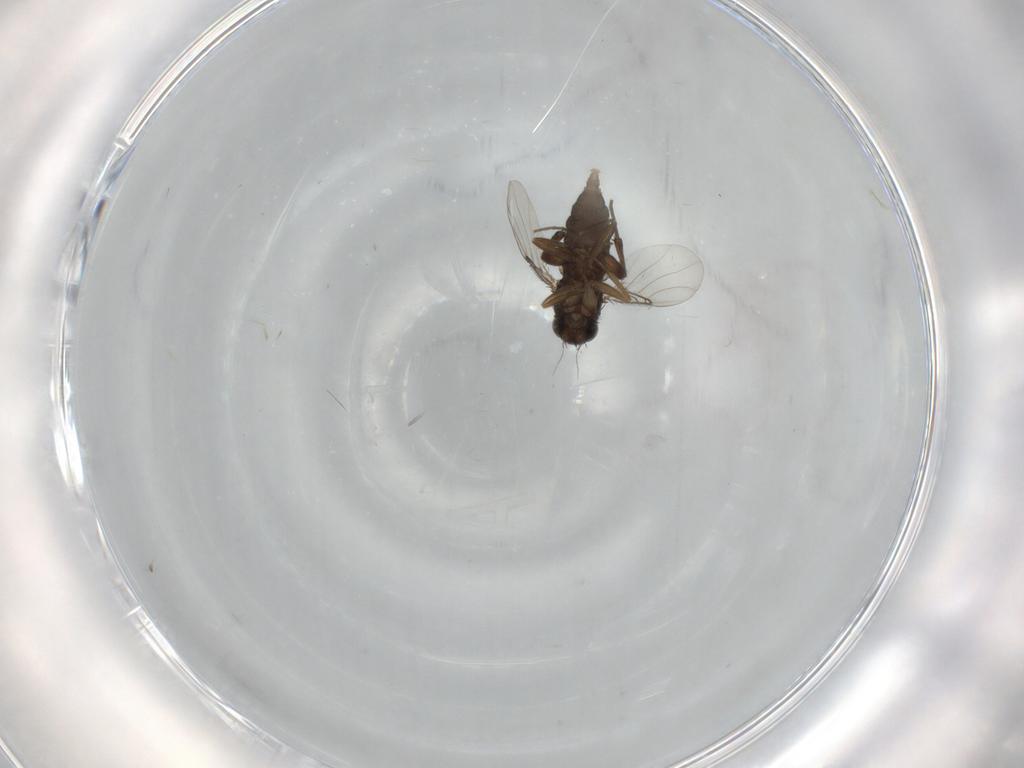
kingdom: Animalia
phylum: Arthropoda
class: Insecta
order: Diptera
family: Phoridae
